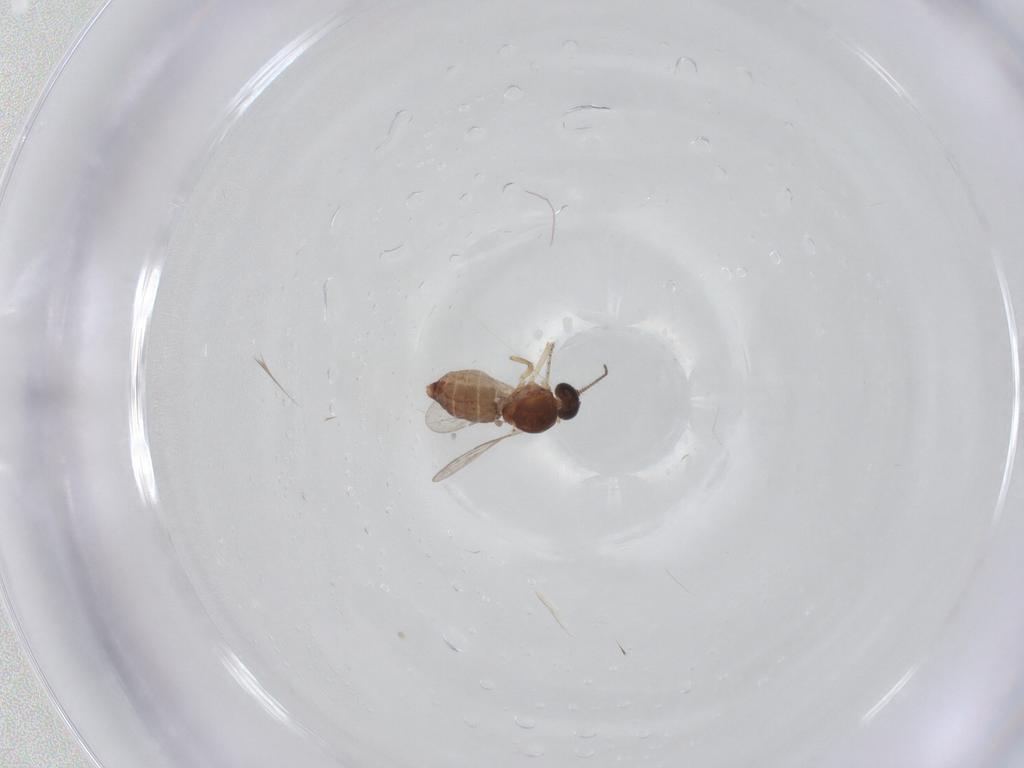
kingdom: Animalia
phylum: Arthropoda
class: Insecta
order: Diptera
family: Ceratopogonidae
